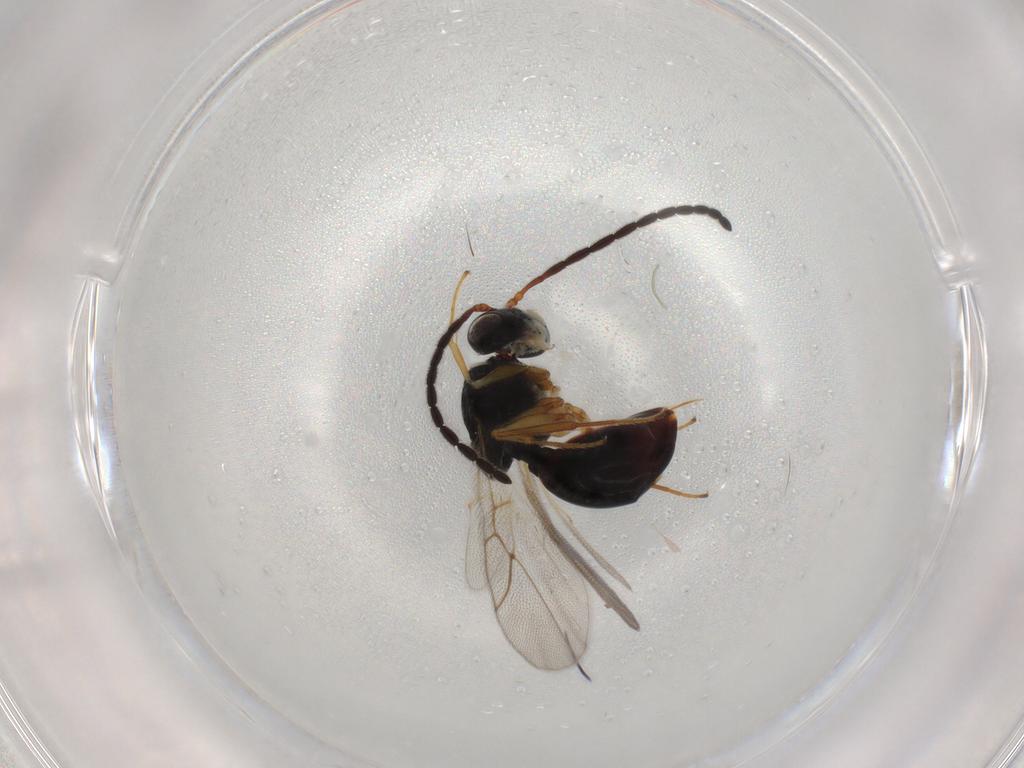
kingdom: Animalia
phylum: Arthropoda
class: Insecta
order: Hymenoptera
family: Figitidae
